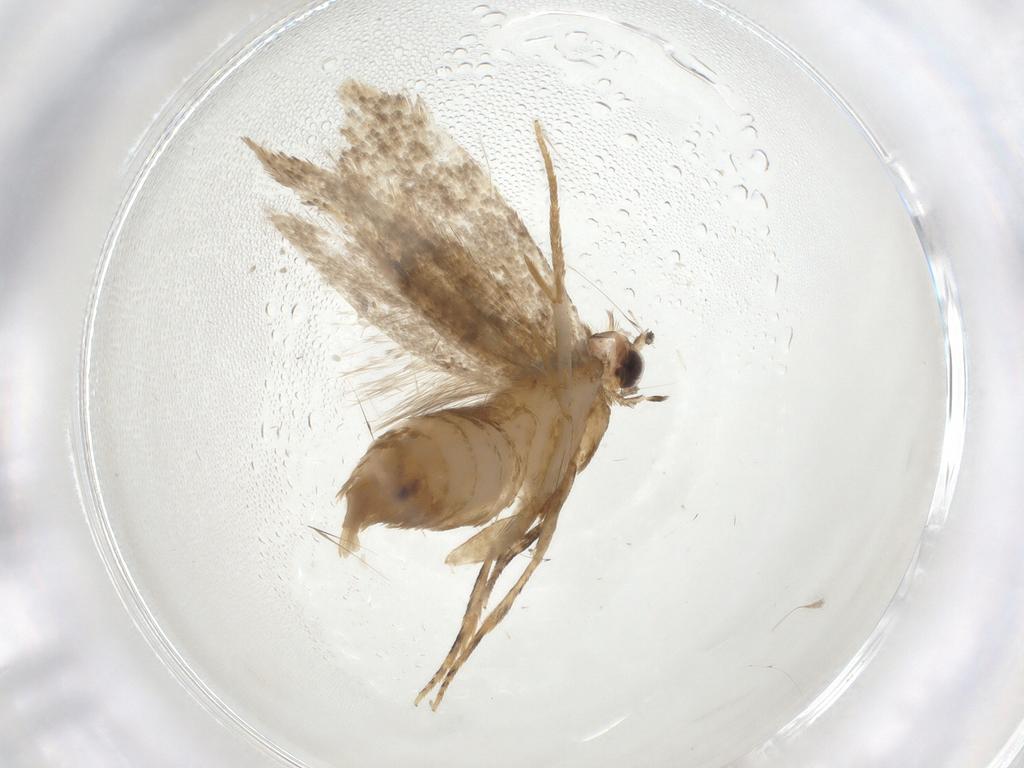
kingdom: Animalia
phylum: Arthropoda
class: Insecta
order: Lepidoptera
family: Tineidae
